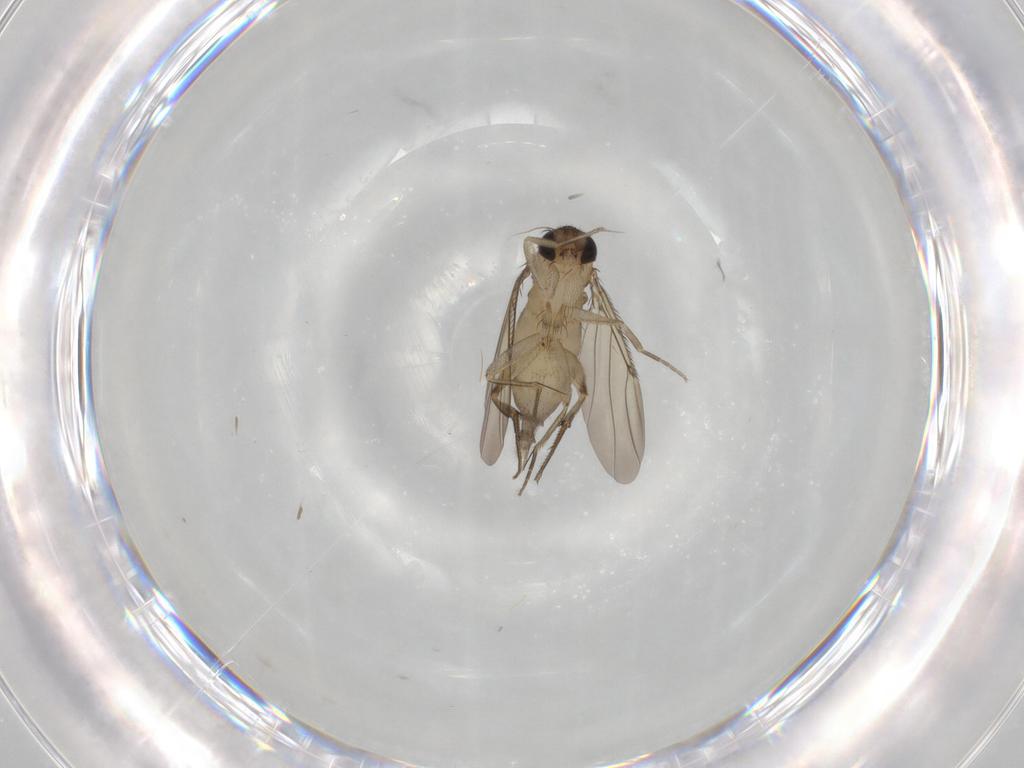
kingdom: Animalia
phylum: Arthropoda
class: Insecta
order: Diptera
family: Phoridae
